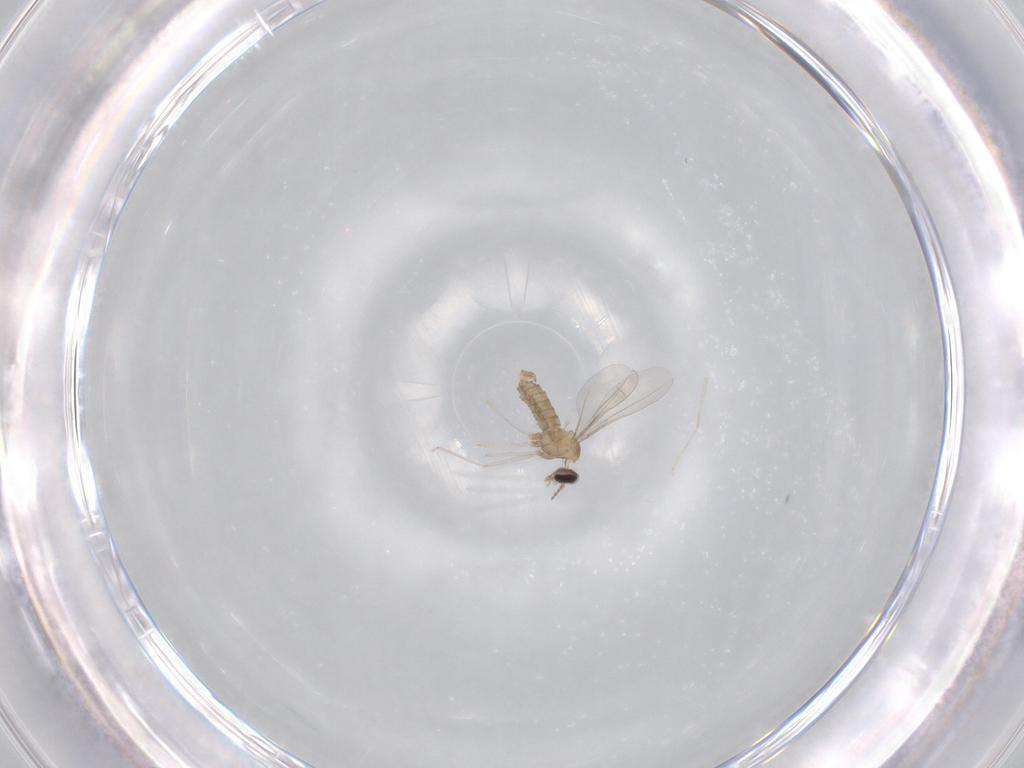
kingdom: Animalia
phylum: Arthropoda
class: Insecta
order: Diptera
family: Cecidomyiidae
